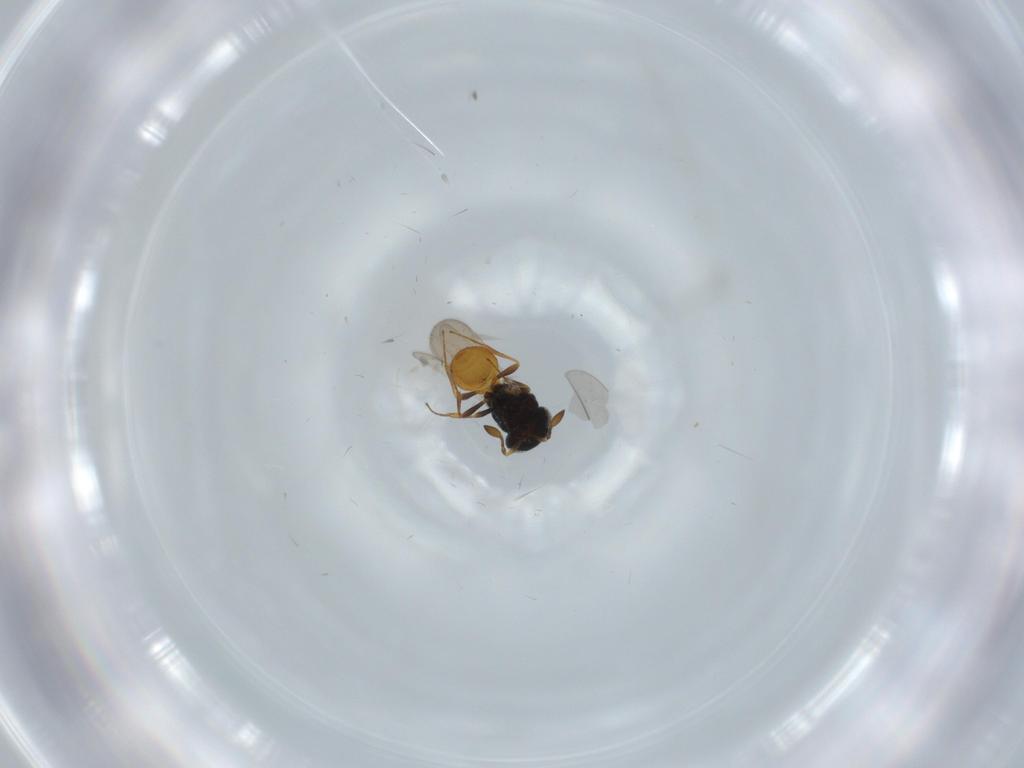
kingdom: Animalia
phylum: Arthropoda
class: Insecta
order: Hymenoptera
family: Scelionidae
